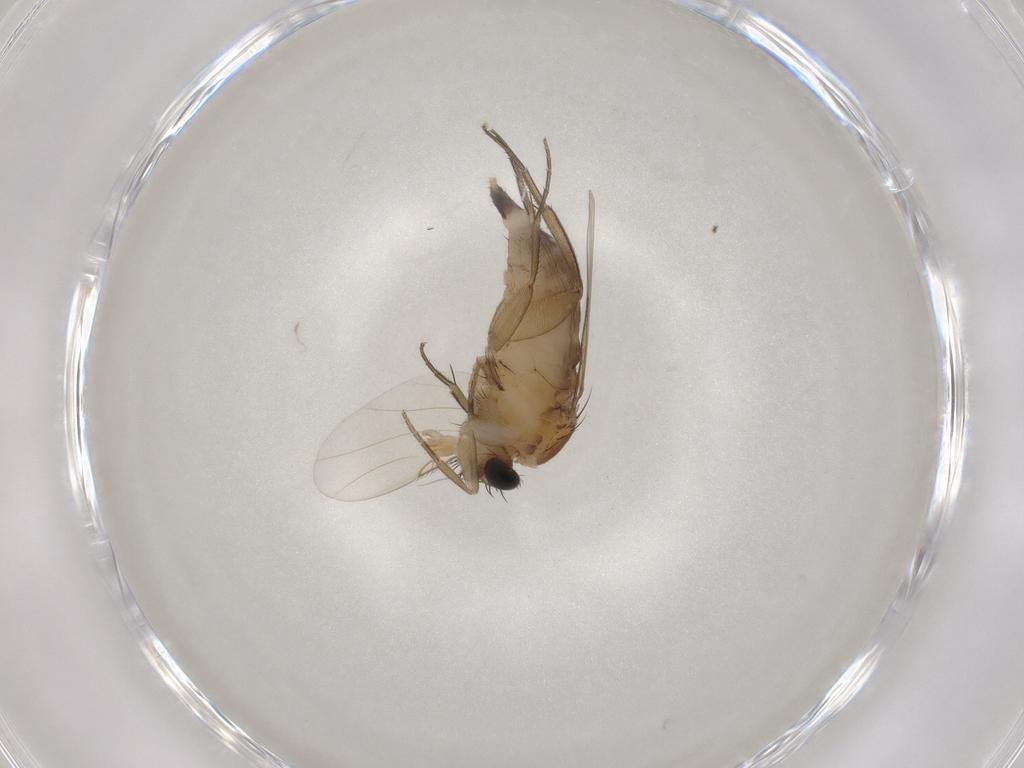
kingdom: Animalia
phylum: Arthropoda
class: Insecta
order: Diptera
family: Phoridae
